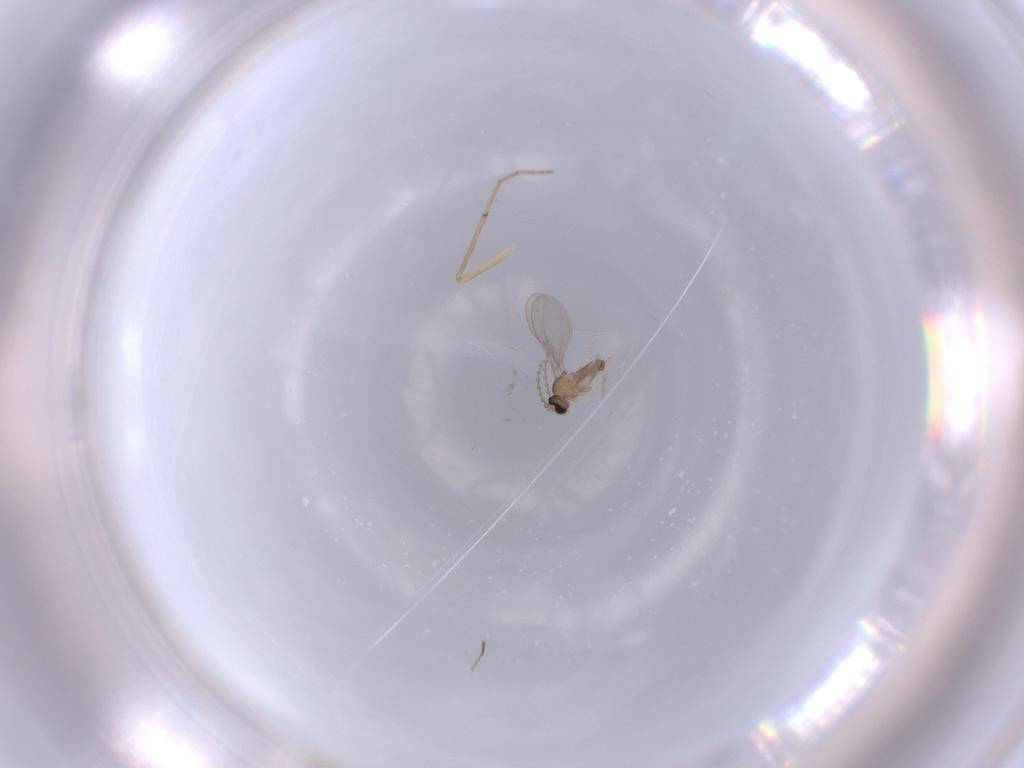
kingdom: Animalia
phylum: Arthropoda
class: Insecta
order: Diptera
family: Cecidomyiidae
